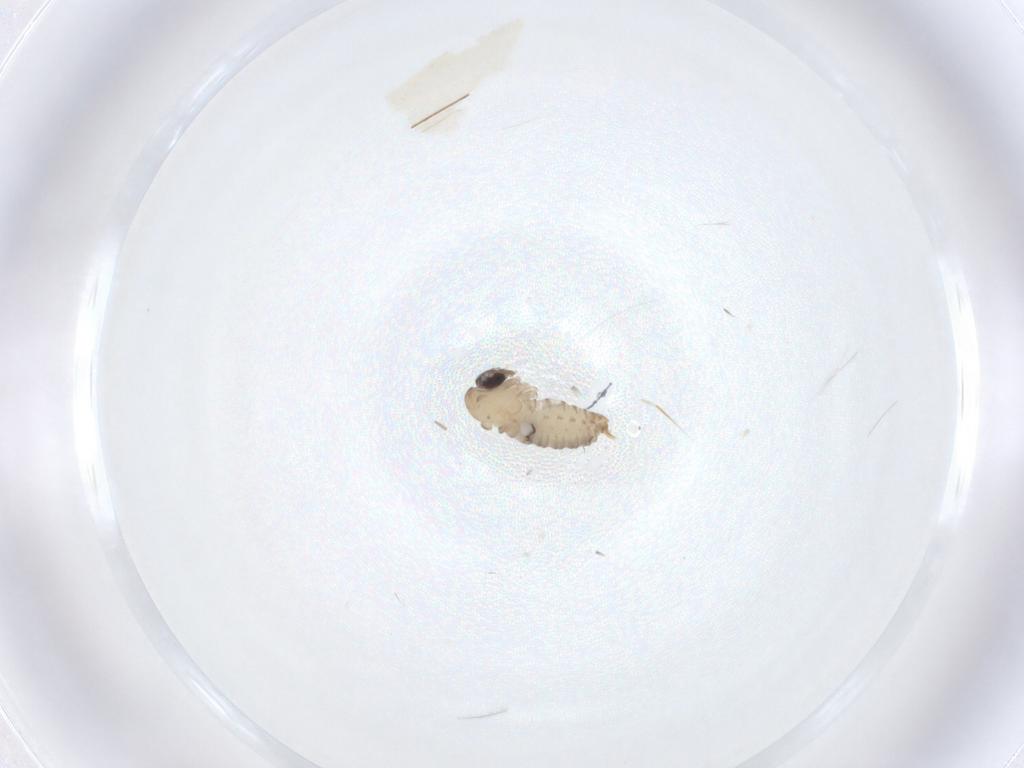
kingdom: Animalia
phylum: Arthropoda
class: Insecta
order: Diptera
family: Psychodidae
